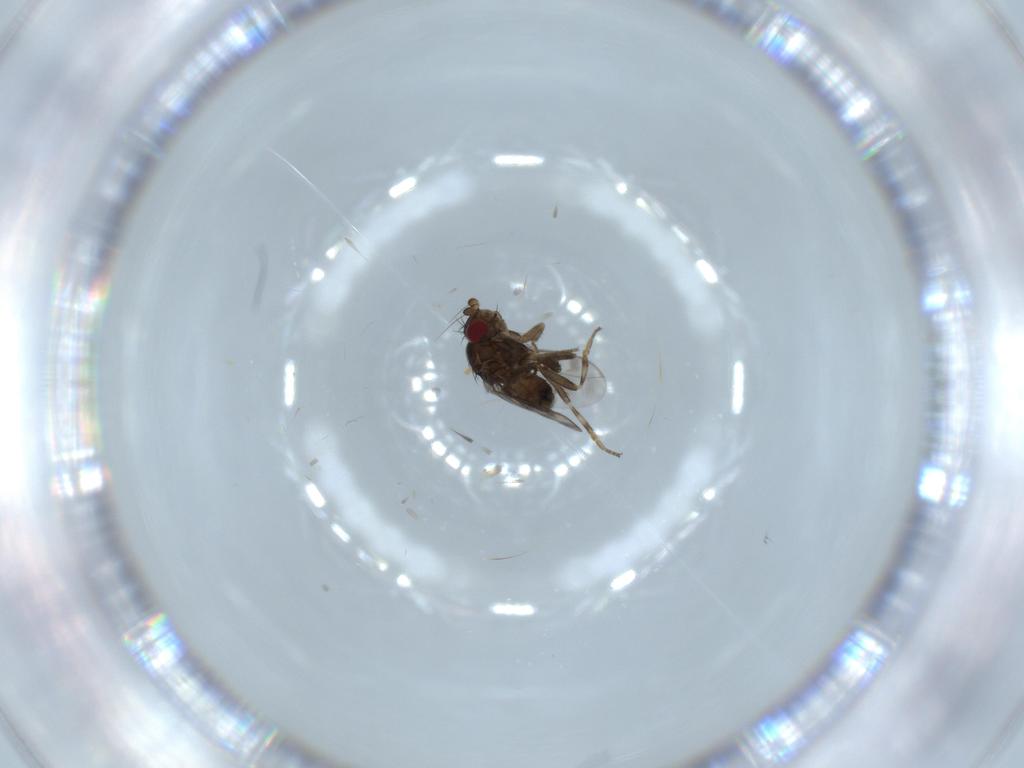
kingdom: Animalia
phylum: Arthropoda
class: Insecta
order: Diptera
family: Sphaeroceridae
